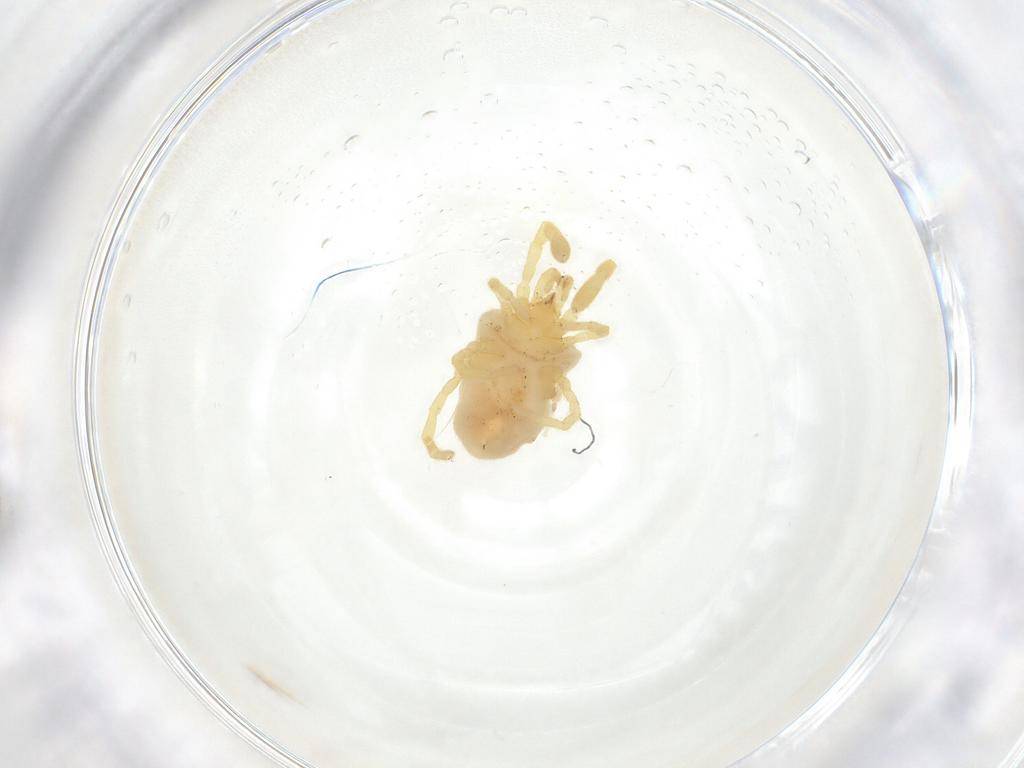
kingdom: Animalia
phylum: Arthropoda
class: Arachnida
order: Trombidiformes
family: Podothrombiidae
